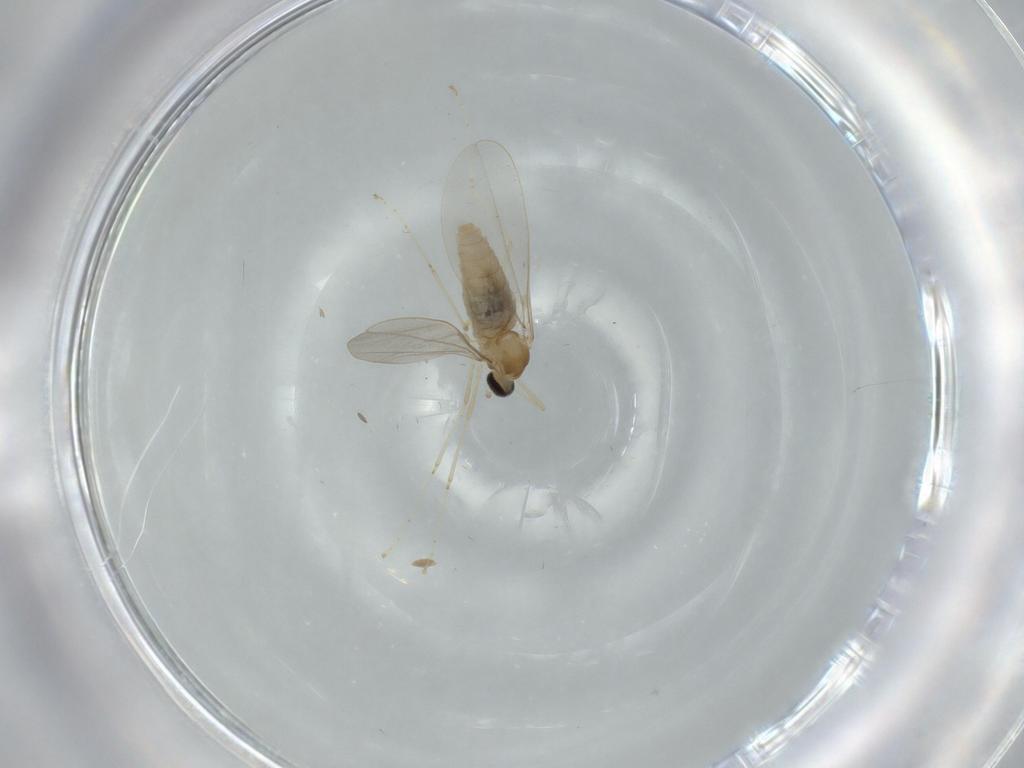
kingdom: Animalia
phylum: Arthropoda
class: Insecta
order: Diptera
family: Cecidomyiidae
